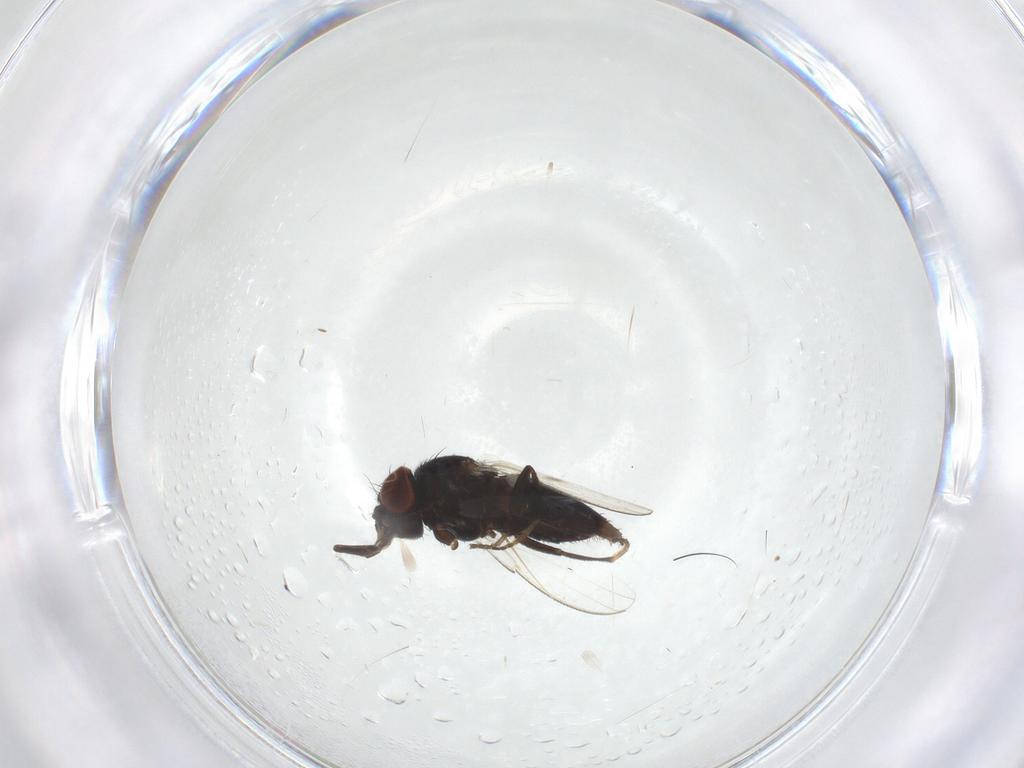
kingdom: Animalia
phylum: Arthropoda
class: Insecta
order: Diptera
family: Milichiidae
